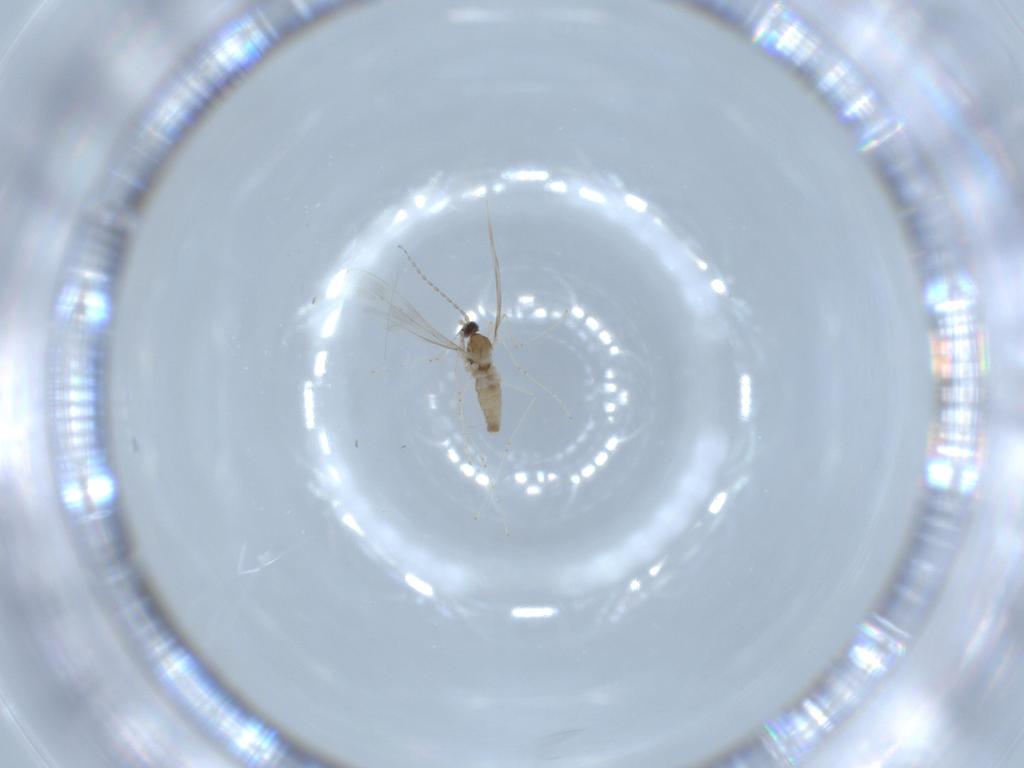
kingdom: Animalia
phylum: Arthropoda
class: Insecta
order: Diptera
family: Cecidomyiidae
